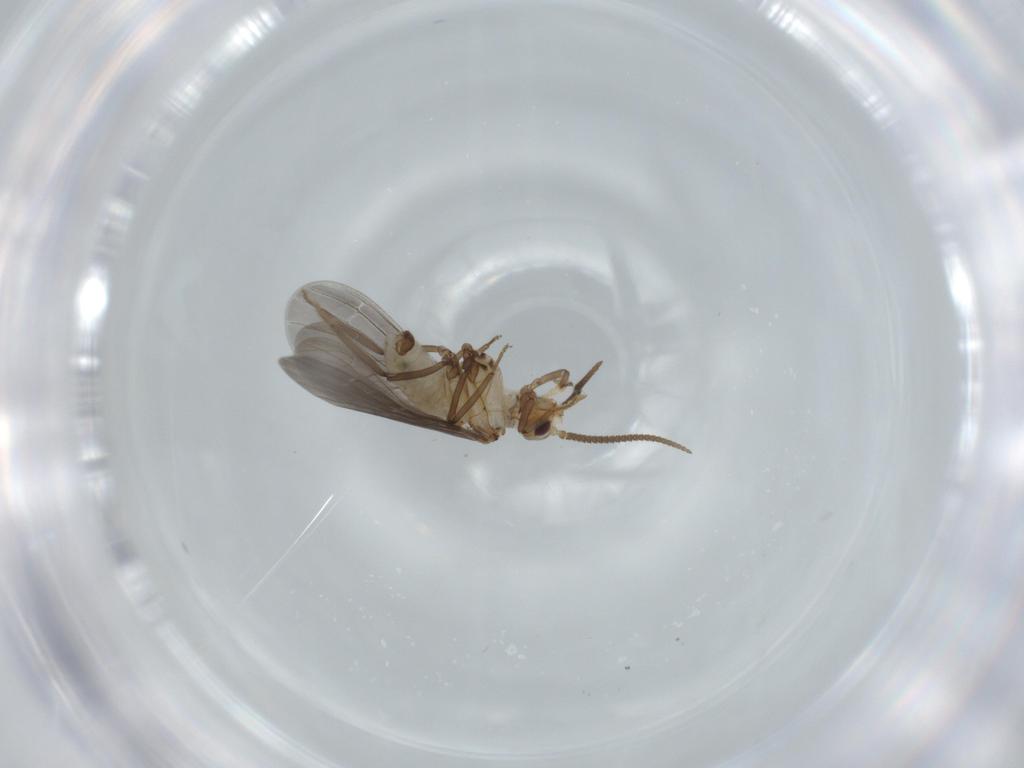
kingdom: Animalia
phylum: Arthropoda
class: Insecta
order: Neuroptera
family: Coniopterygidae
